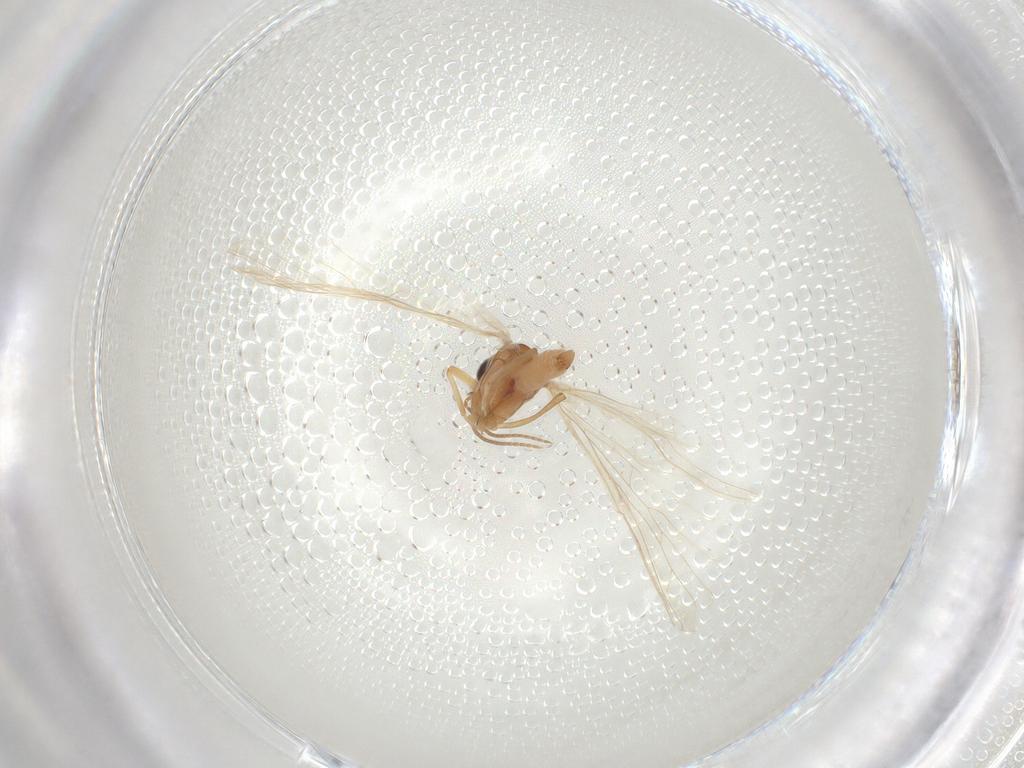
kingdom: Animalia
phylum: Arthropoda
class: Insecta
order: Neuroptera
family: Coniopterygidae
